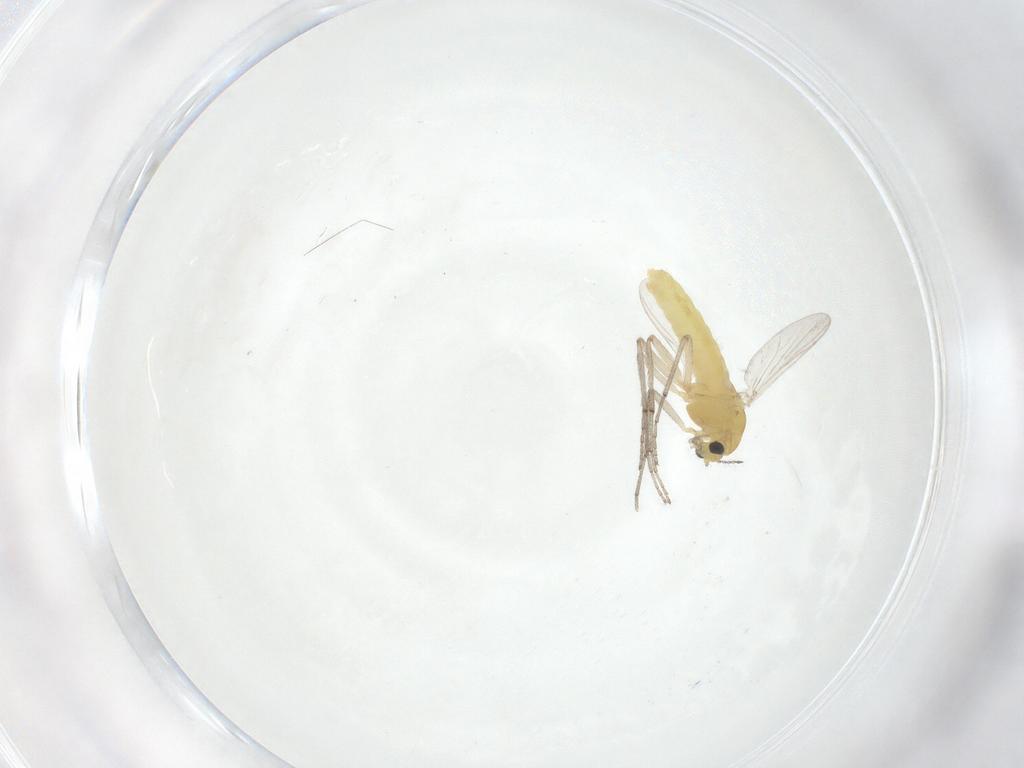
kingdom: Animalia
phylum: Arthropoda
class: Insecta
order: Diptera
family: Chironomidae
